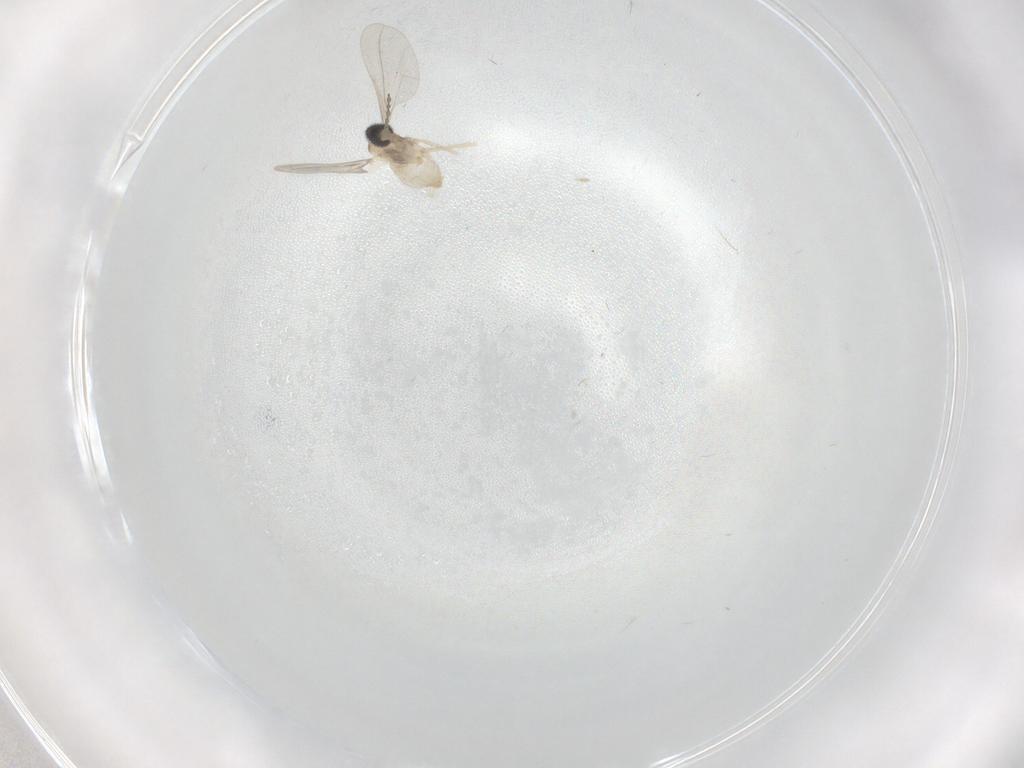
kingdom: Animalia
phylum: Arthropoda
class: Insecta
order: Diptera
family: Cecidomyiidae
